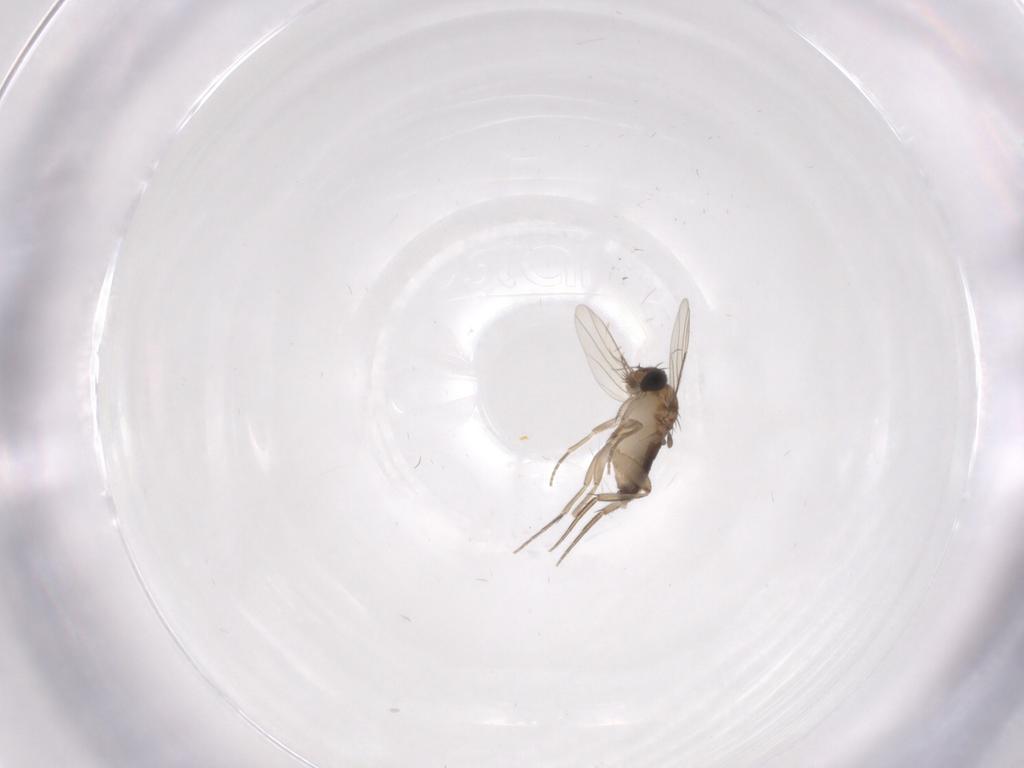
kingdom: Animalia
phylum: Arthropoda
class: Insecta
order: Diptera
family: Phoridae
